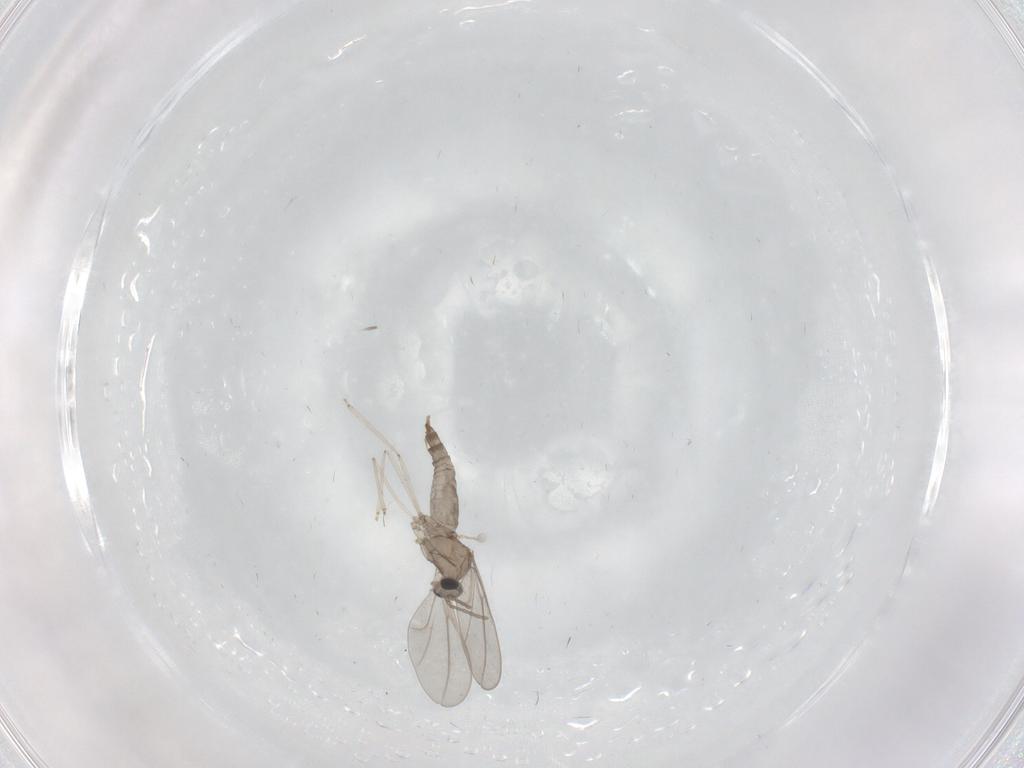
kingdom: Animalia
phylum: Arthropoda
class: Insecta
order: Diptera
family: Cecidomyiidae
